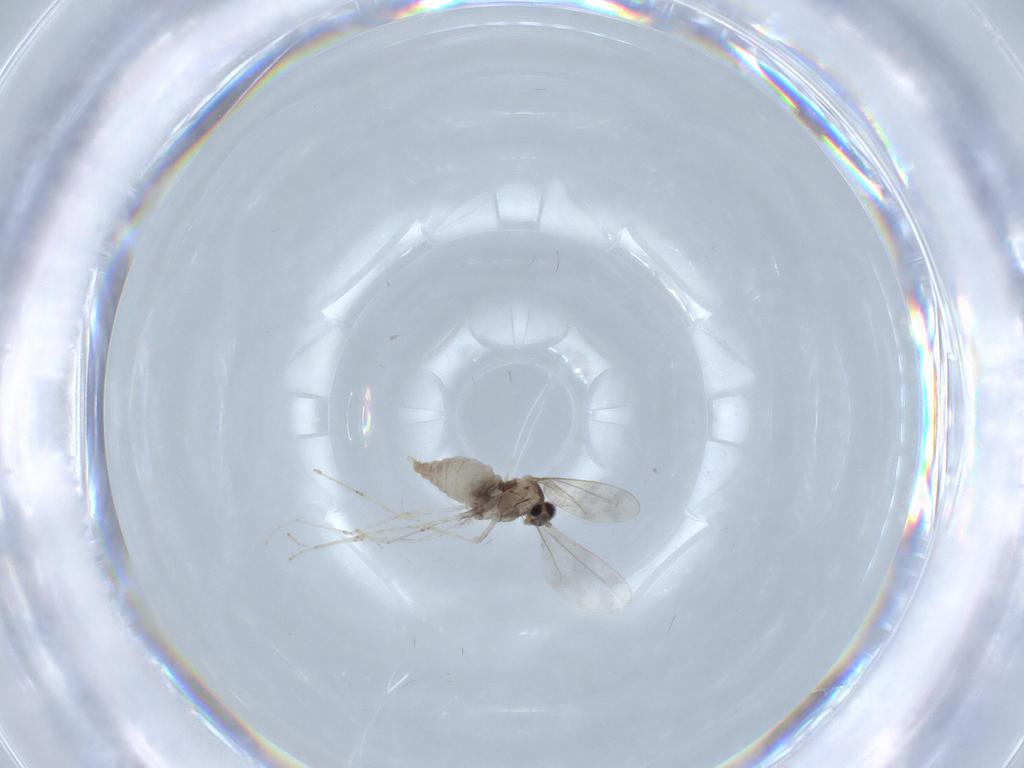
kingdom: Animalia
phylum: Arthropoda
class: Insecta
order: Diptera
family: Cecidomyiidae
